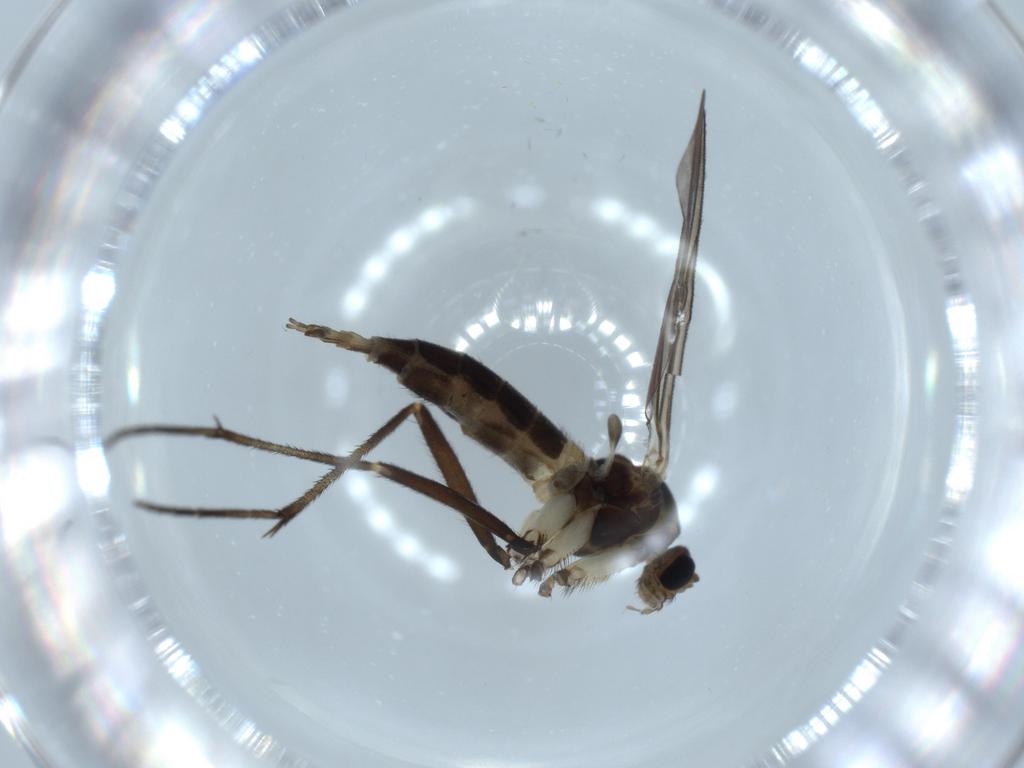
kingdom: Animalia
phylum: Arthropoda
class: Insecta
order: Diptera
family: Sciaridae
